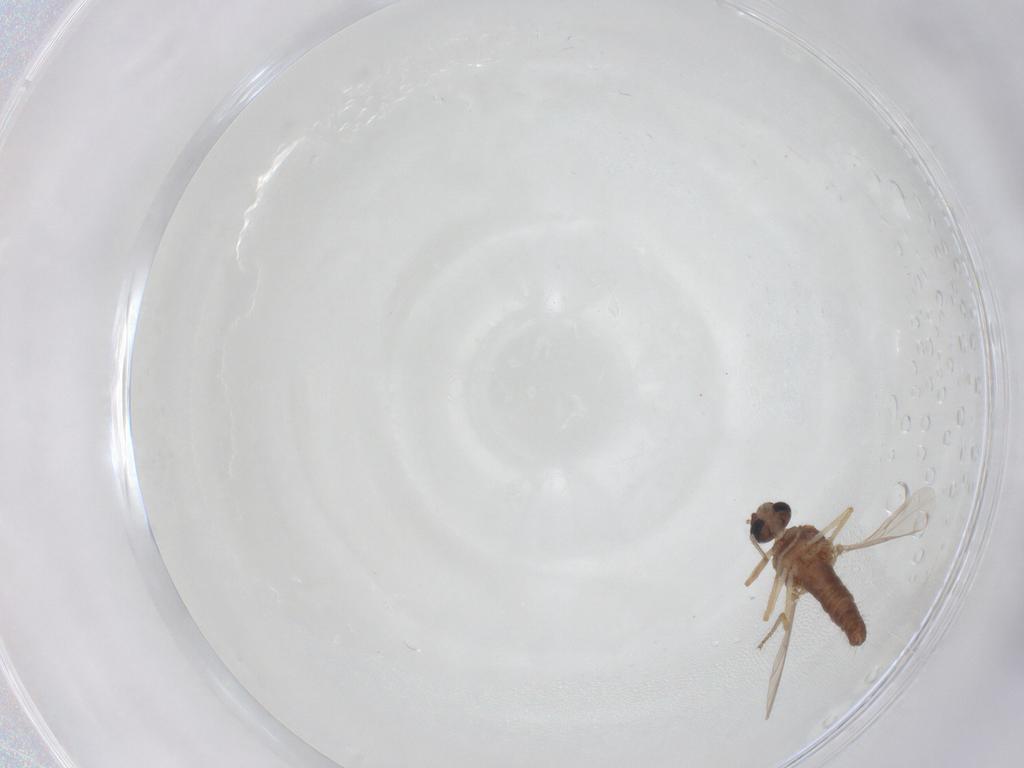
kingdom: Animalia
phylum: Arthropoda
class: Insecta
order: Diptera
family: Ceratopogonidae
